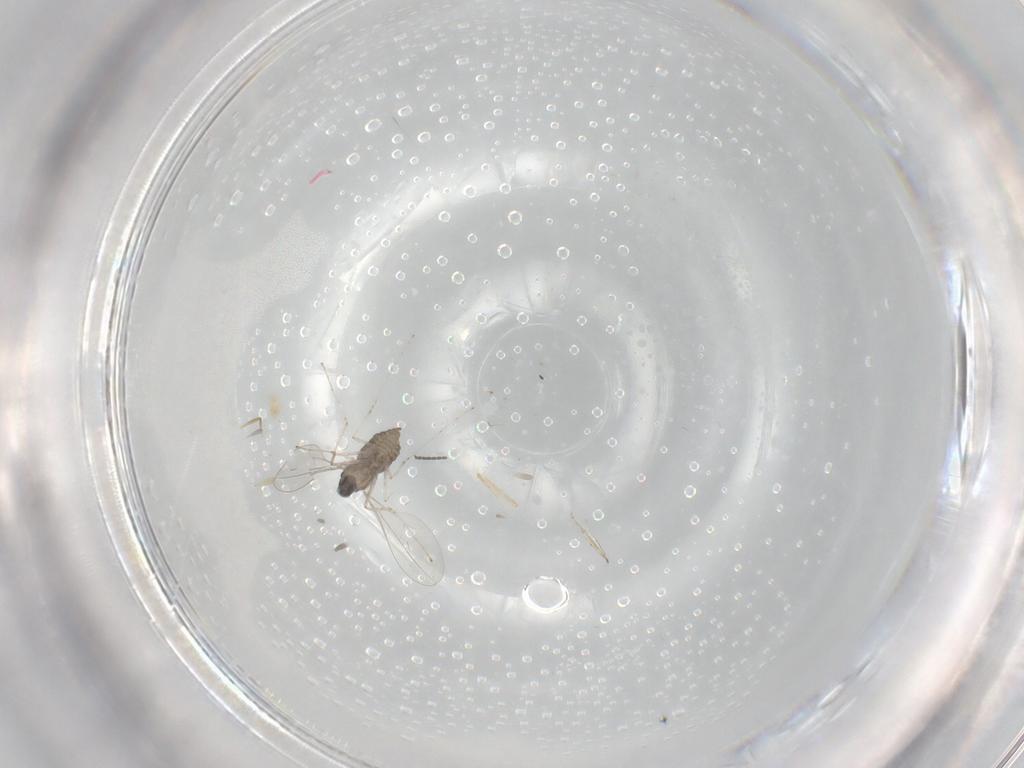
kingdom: Animalia
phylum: Arthropoda
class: Insecta
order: Diptera
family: Cecidomyiidae
